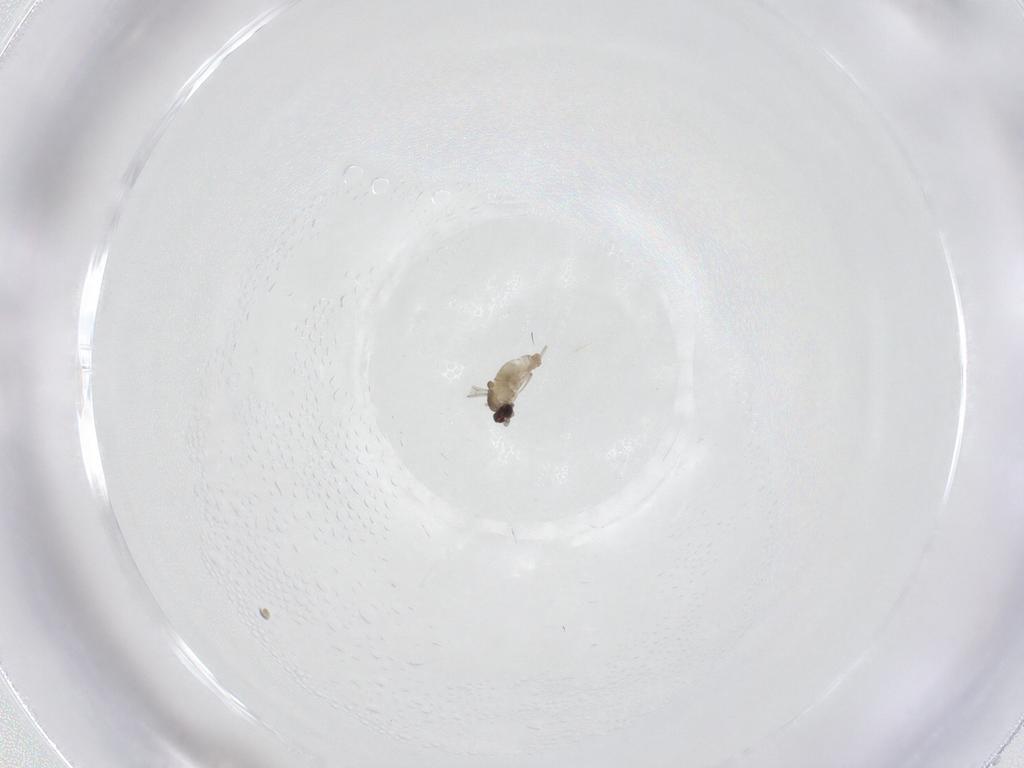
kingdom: Animalia
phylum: Arthropoda
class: Insecta
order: Diptera
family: Cecidomyiidae
